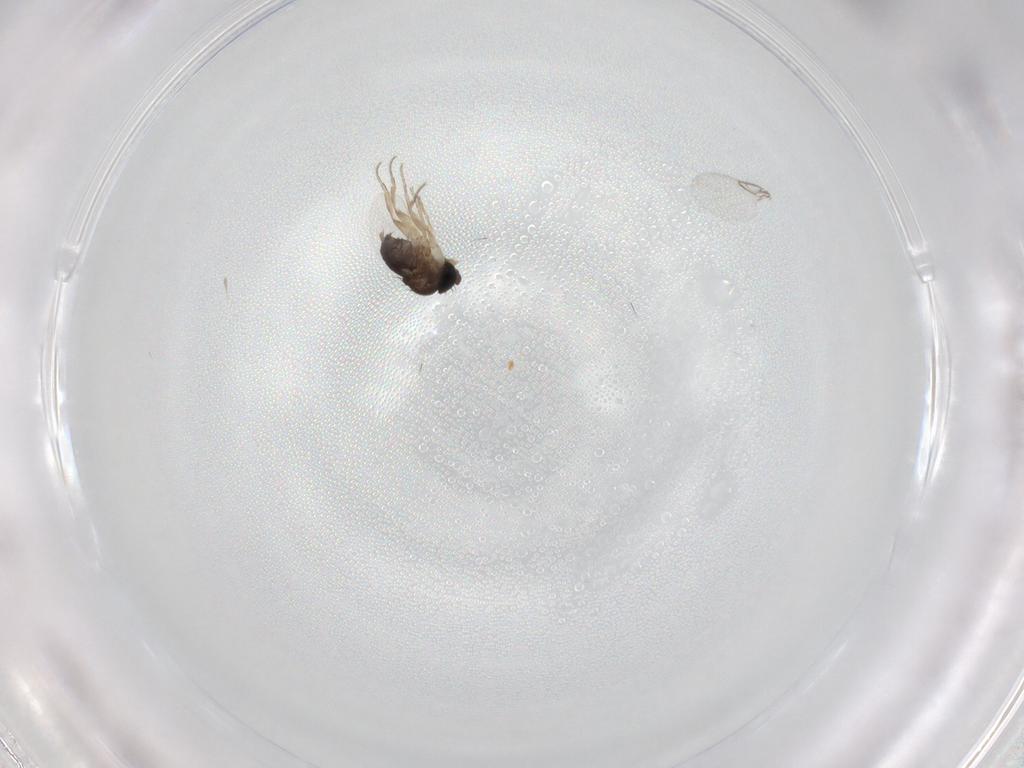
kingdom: Animalia
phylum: Arthropoda
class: Insecta
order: Diptera
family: Phoridae
